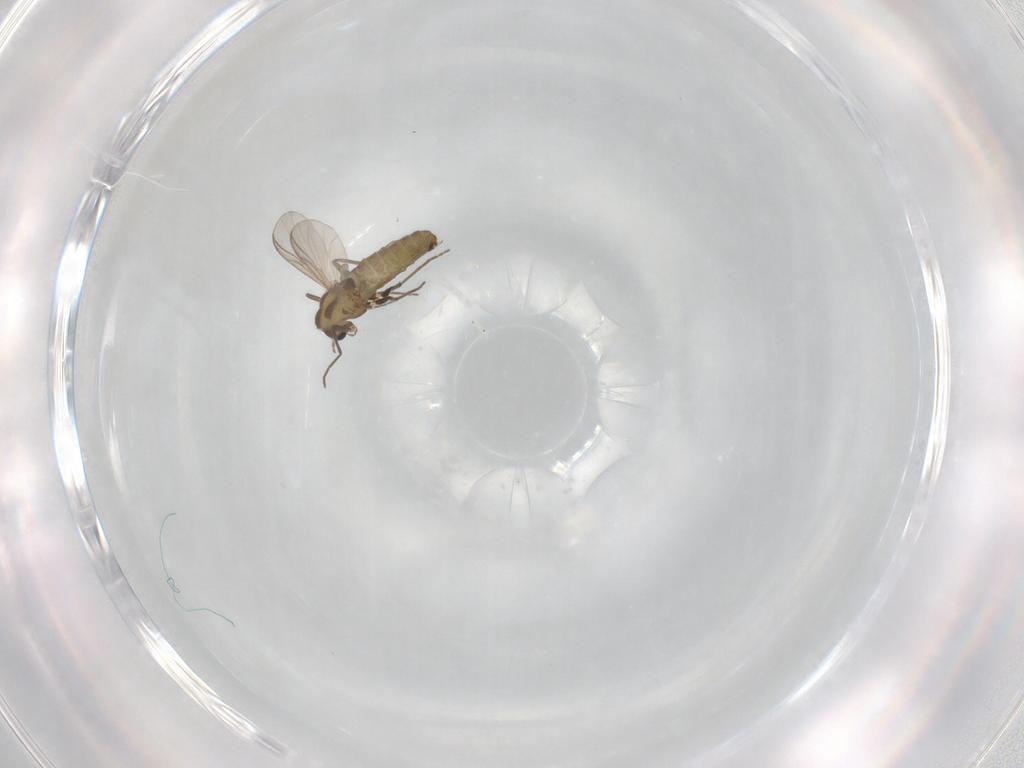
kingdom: Animalia
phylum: Arthropoda
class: Insecta
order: Diptera
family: Chironomidae
